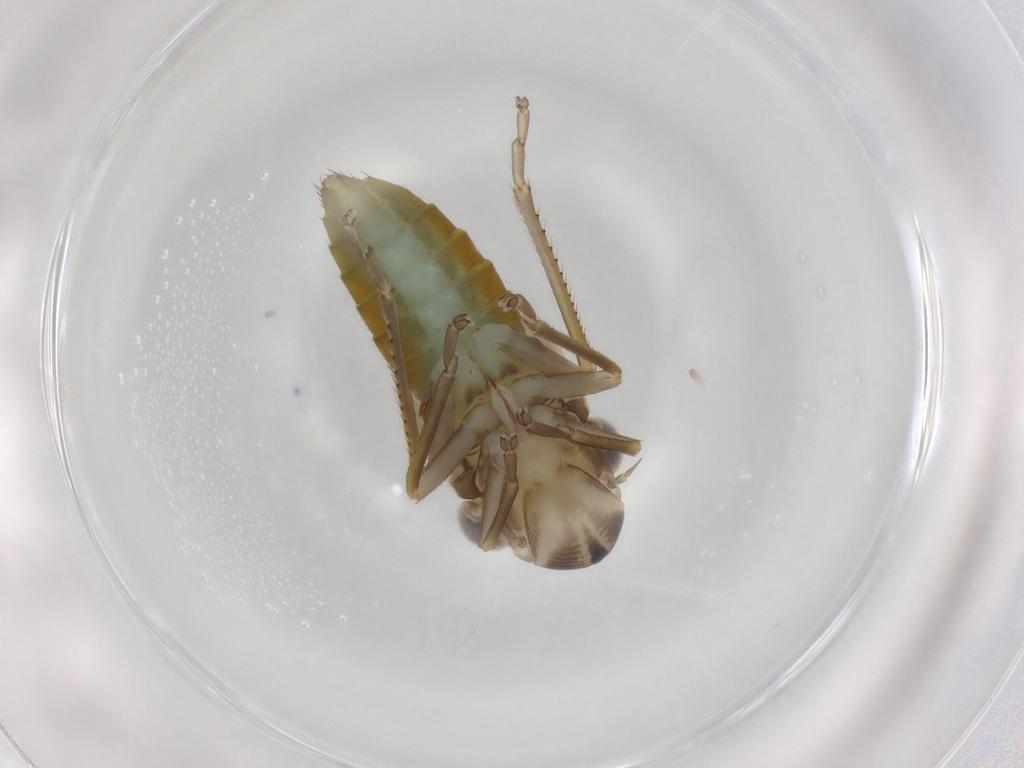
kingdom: Animalia
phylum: Arthropoda
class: Insecta
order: Hemiptera
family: Cicadellidae
